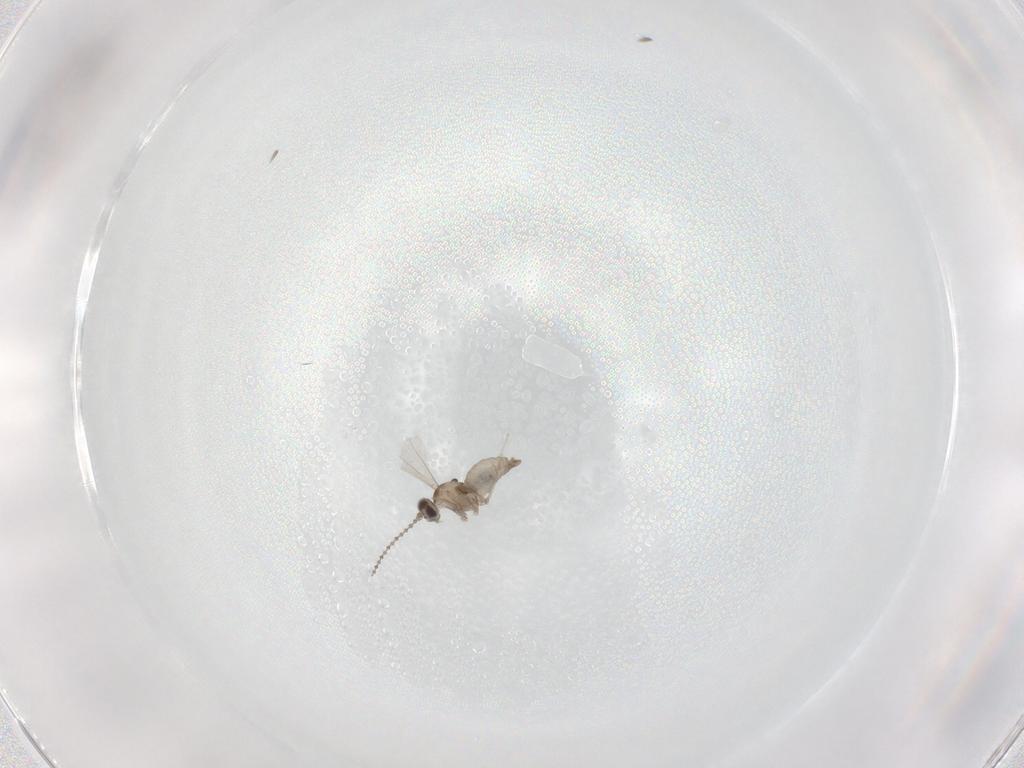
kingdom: Animalia
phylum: Arthropoda
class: Insecta
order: Diptera
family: Cecidomyiidae
